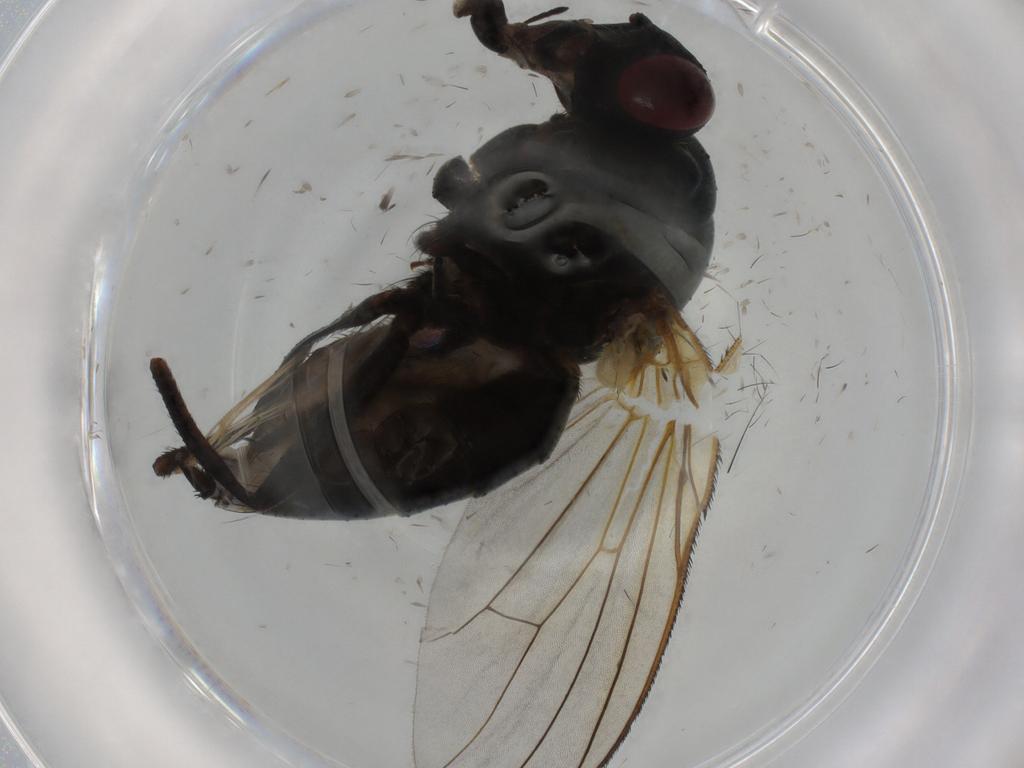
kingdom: Animalia
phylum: Arthropoda
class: Insecta
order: Diptera
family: Muscidae
